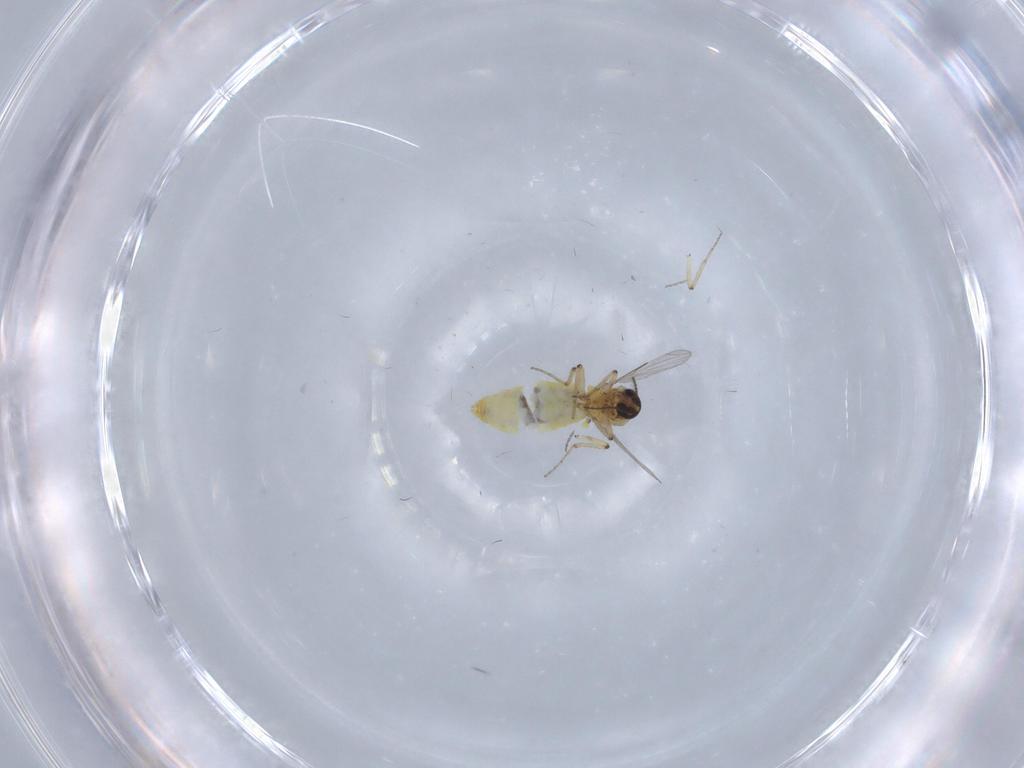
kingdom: Animalia
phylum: Arthropoda
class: Insecta
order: Diptera
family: Ceratopogonidae
